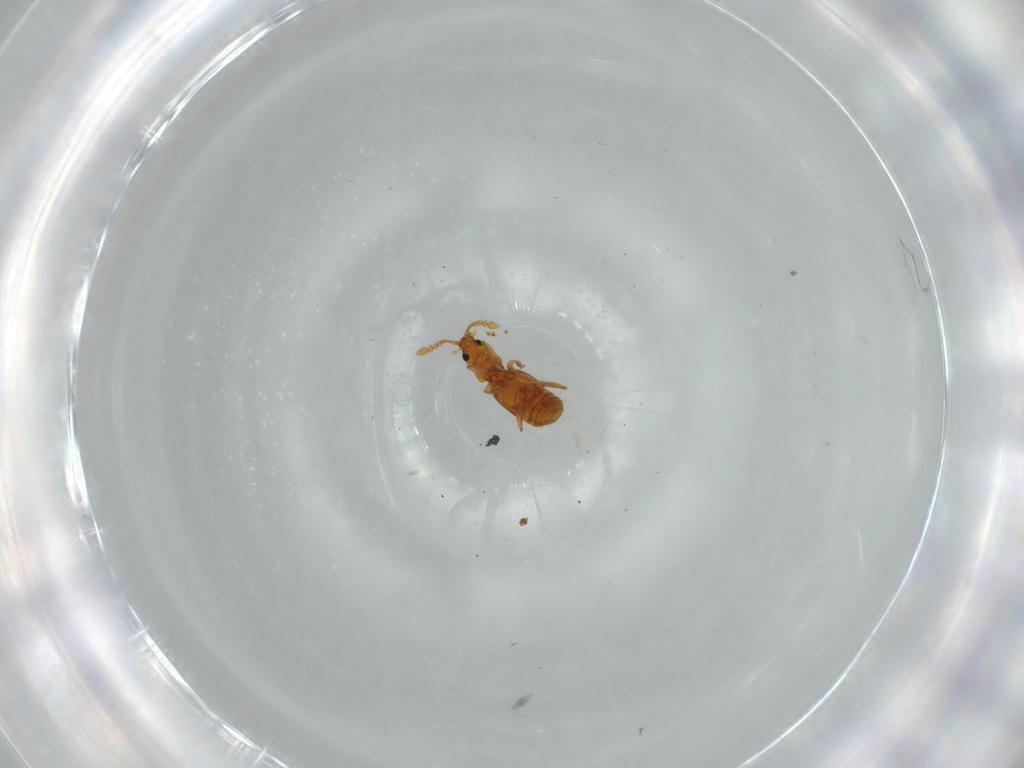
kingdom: Animalia
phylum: Arthropoda
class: Insecta
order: Coleoptera
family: Staphylinidae
